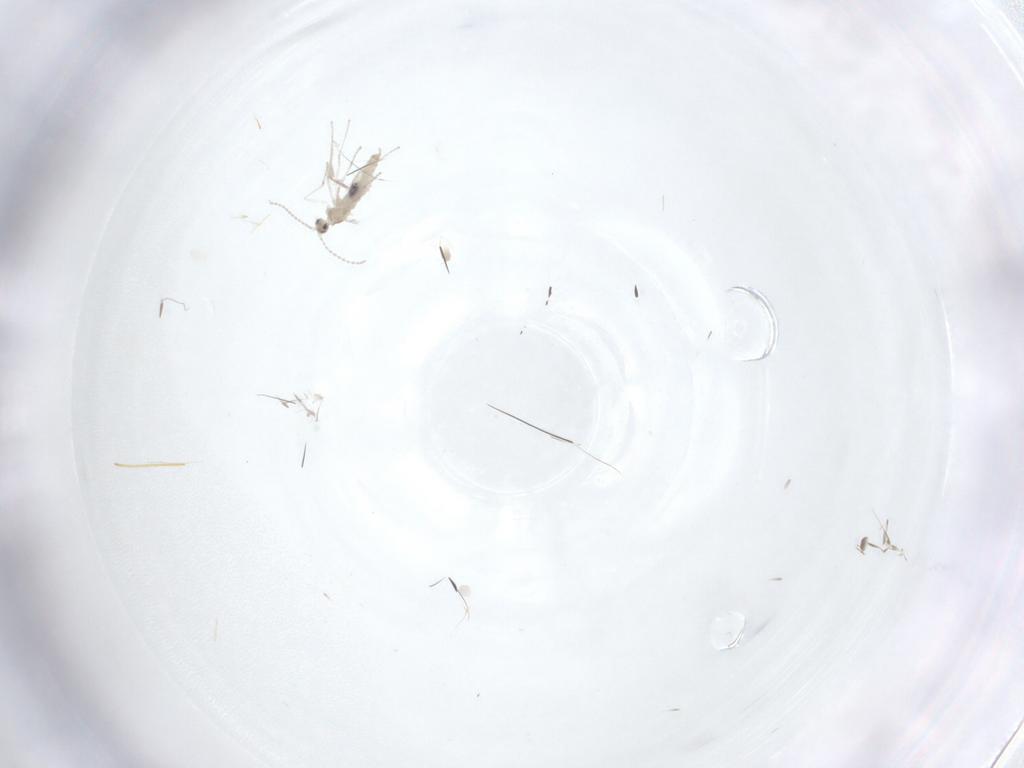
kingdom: Animalia
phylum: Arthropoda
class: Insecta
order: Diptera
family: Bombyliidae
